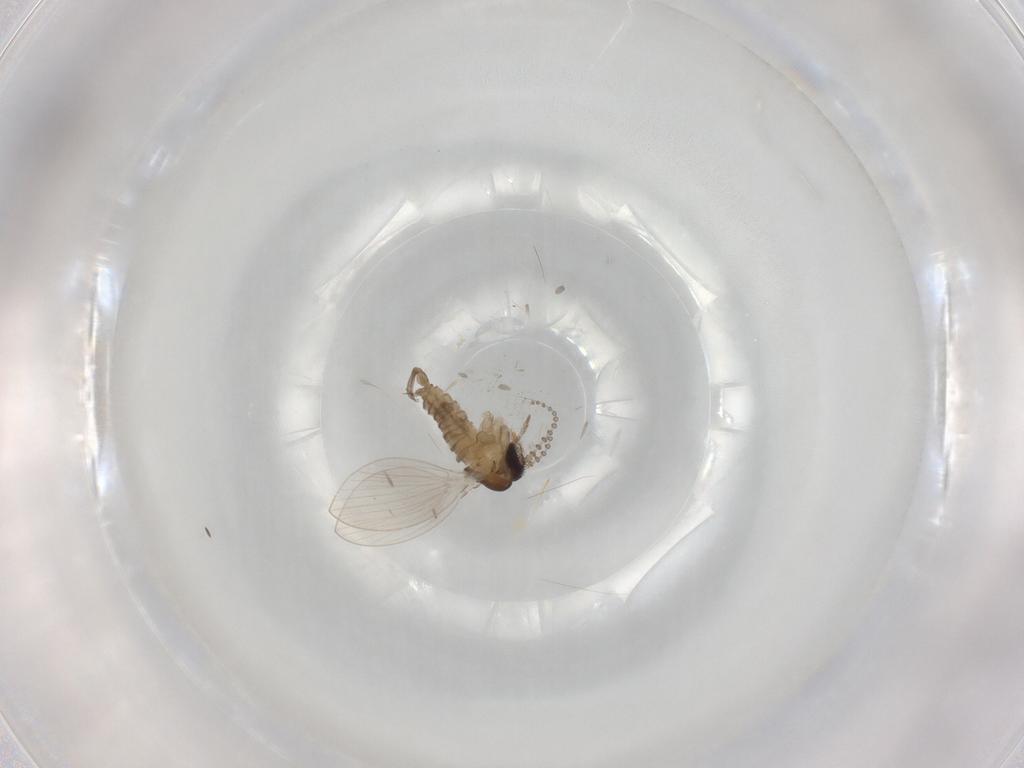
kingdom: Animalia
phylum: Arthropoda
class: Insecta
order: Diptera
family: Psychodidae
